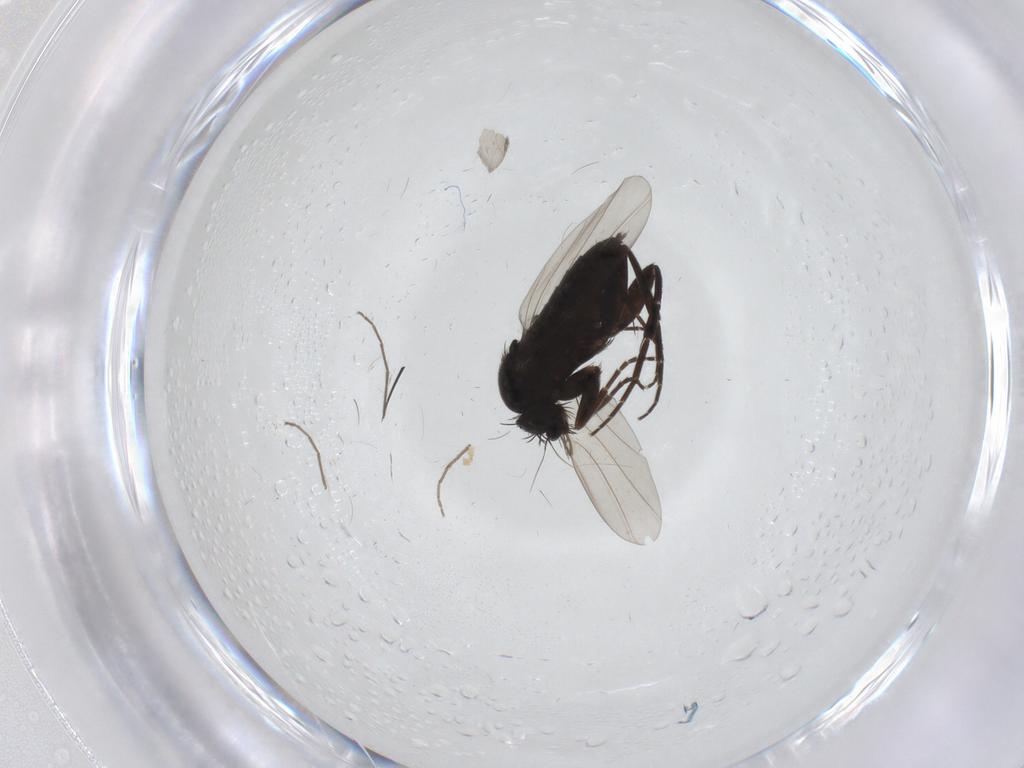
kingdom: Animalia
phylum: Arthropoda
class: Insecta
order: Diptera
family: Phoridae
